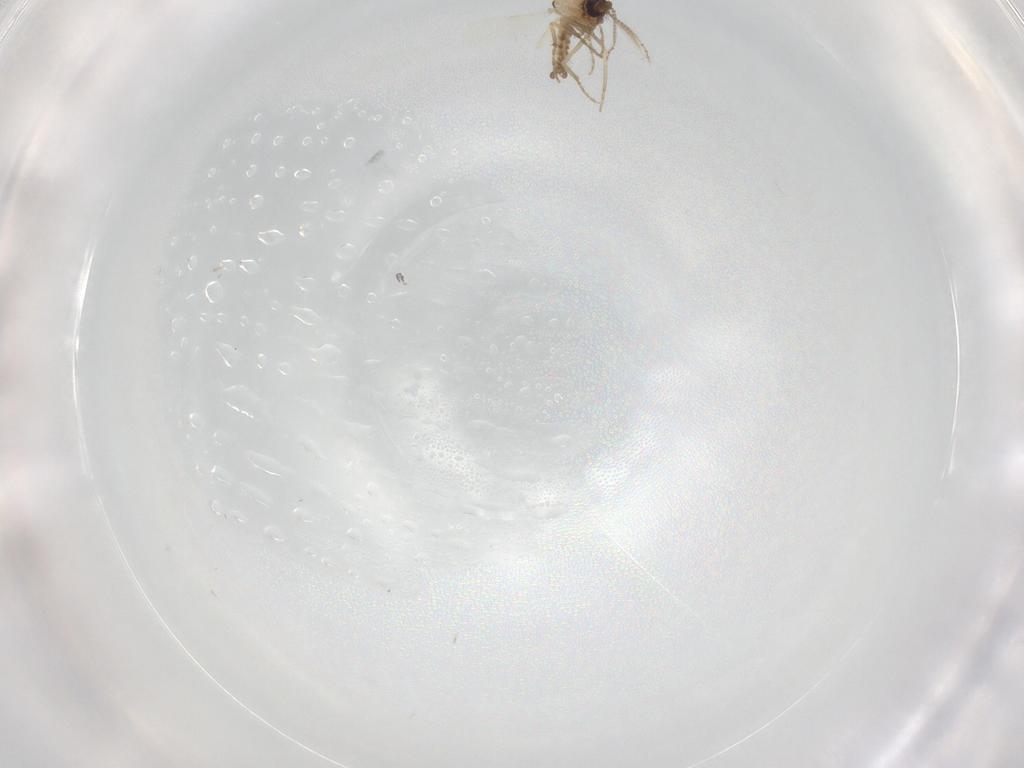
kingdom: Animalia
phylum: Arthropoda
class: Insecta
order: Diptera
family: Ceratopogonidae
